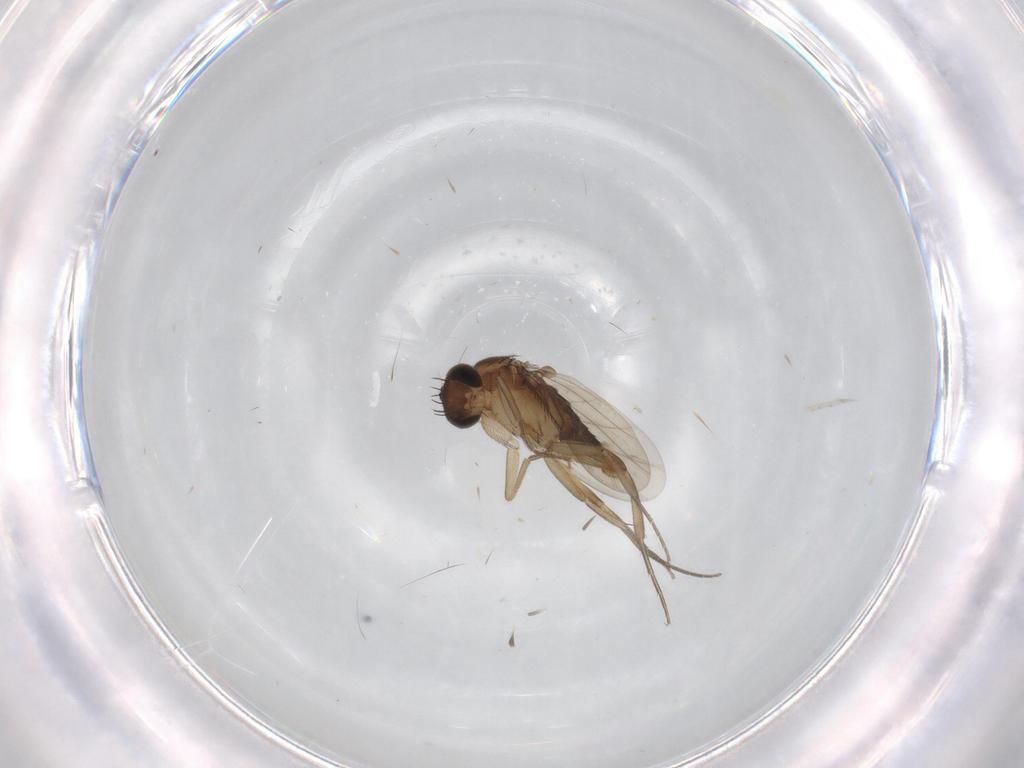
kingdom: Animalia
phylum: Arthropoda
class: Insecta
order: Diptera
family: Phoridae
